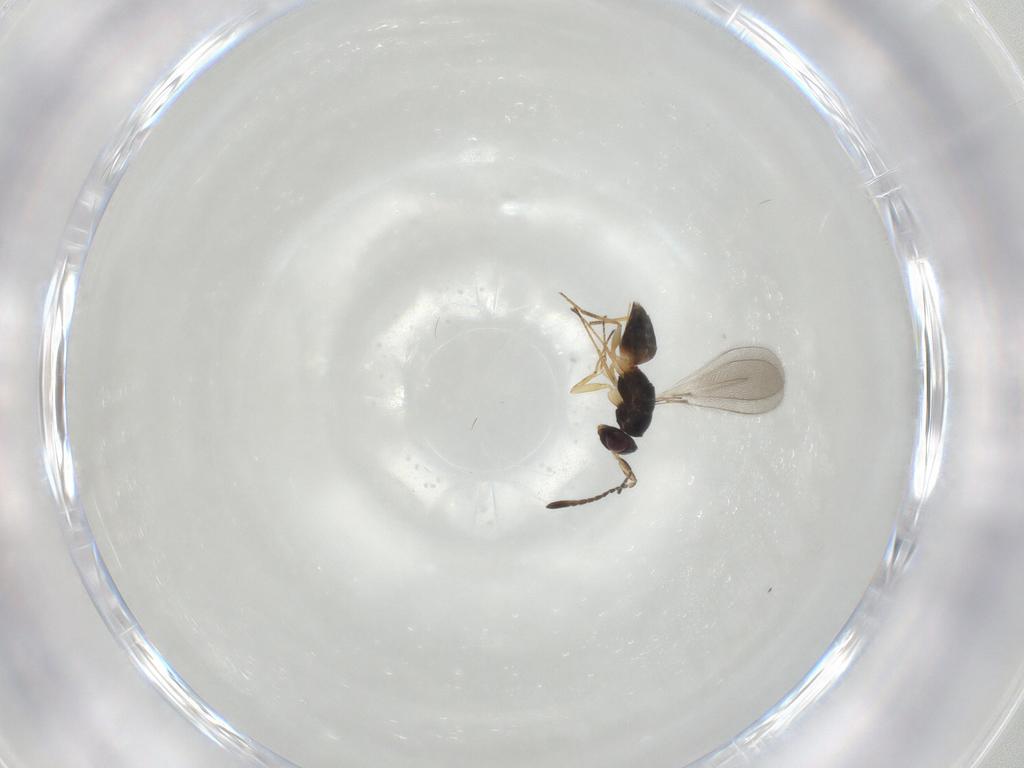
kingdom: Animalia
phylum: Arthropoda
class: Insecta
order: Hymenoptera
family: Mymaridae
